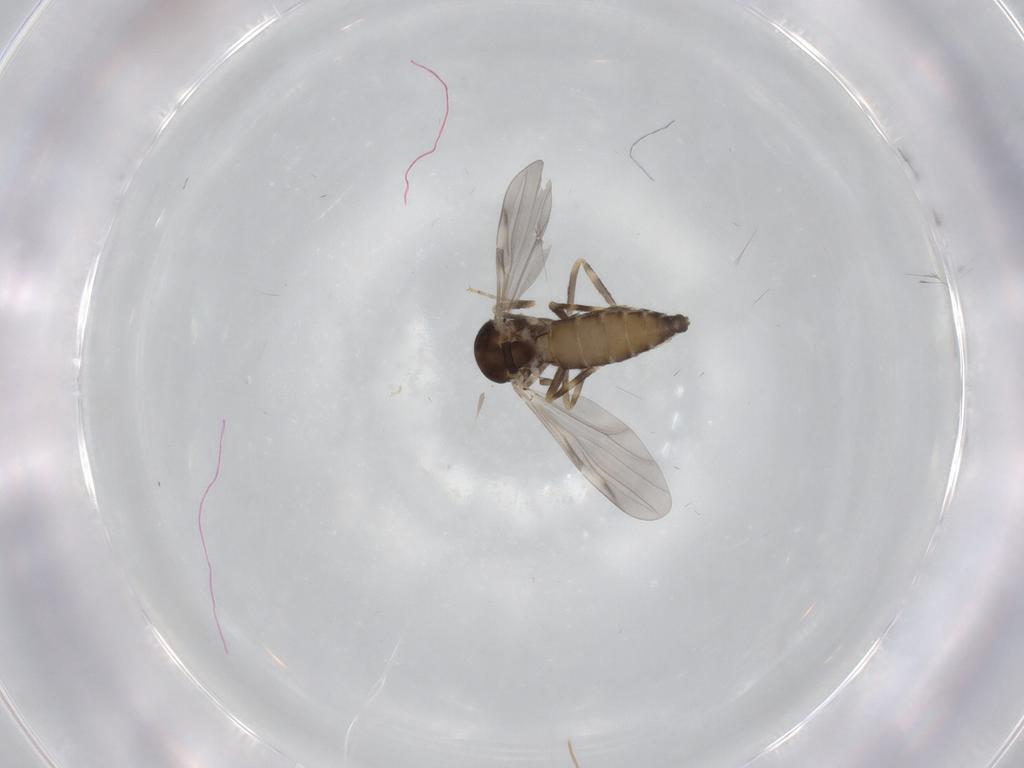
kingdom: Animalia
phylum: Arthropoda
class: Insecta
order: Diptera
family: Ceratopogonidae
